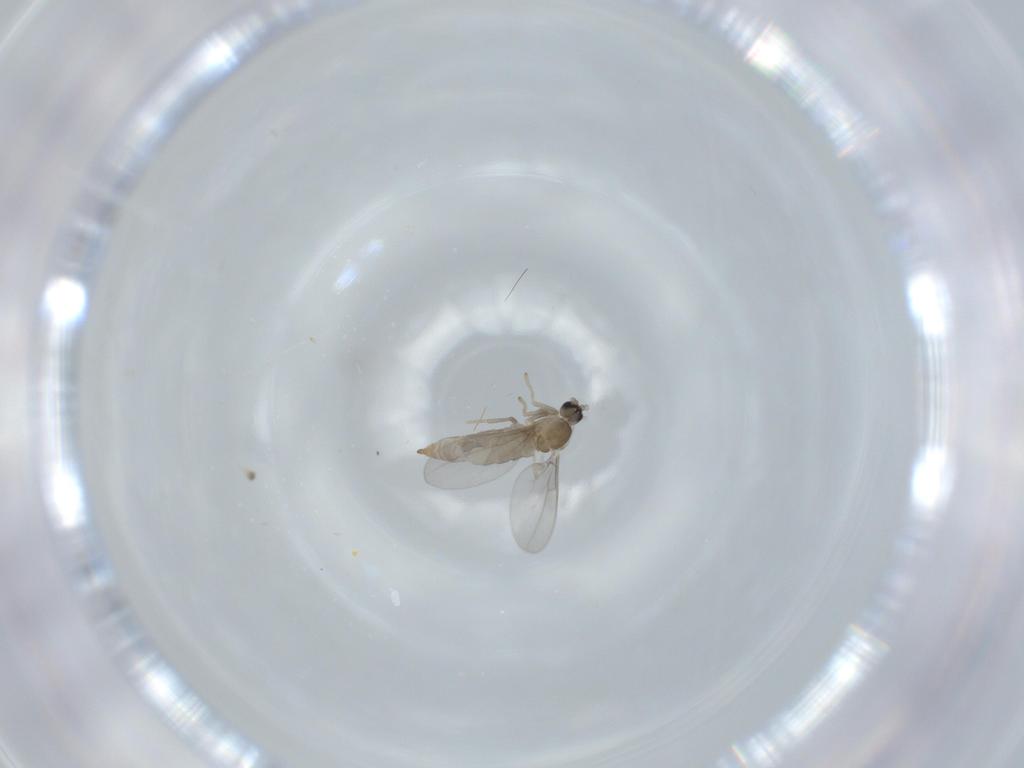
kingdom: Animalia
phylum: Arthropoda
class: Insecta
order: Diptera
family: Cecidomyiidae
